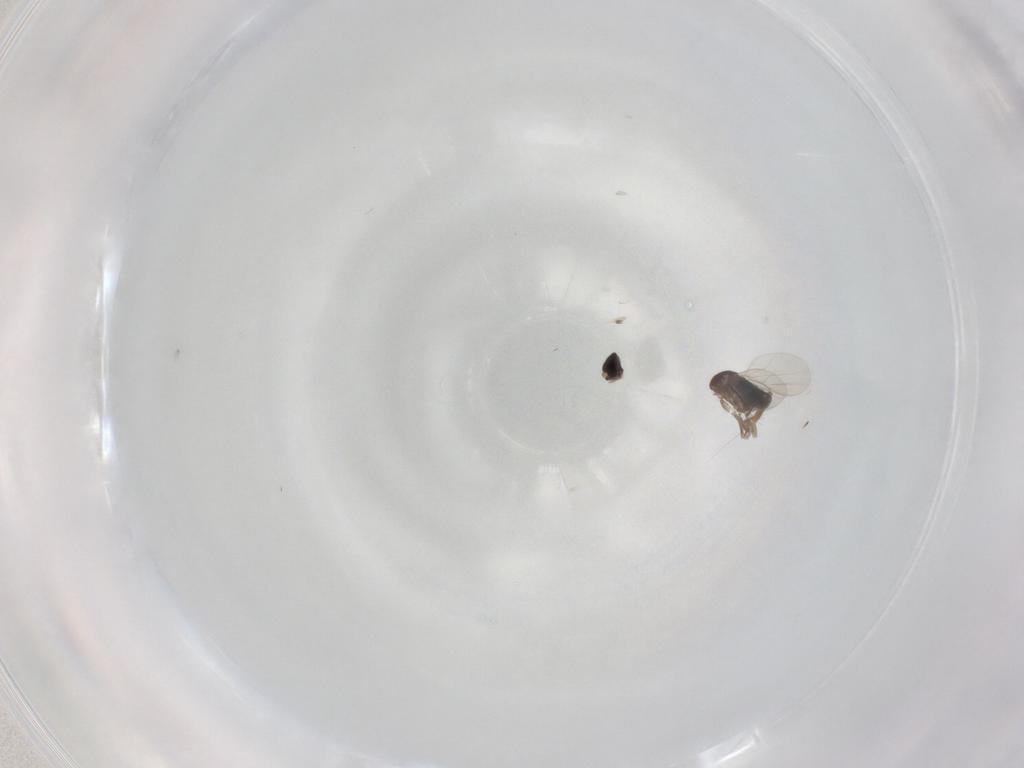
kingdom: Animalia
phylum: Arthropoda
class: Insecta
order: Diptera
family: Phoridae
